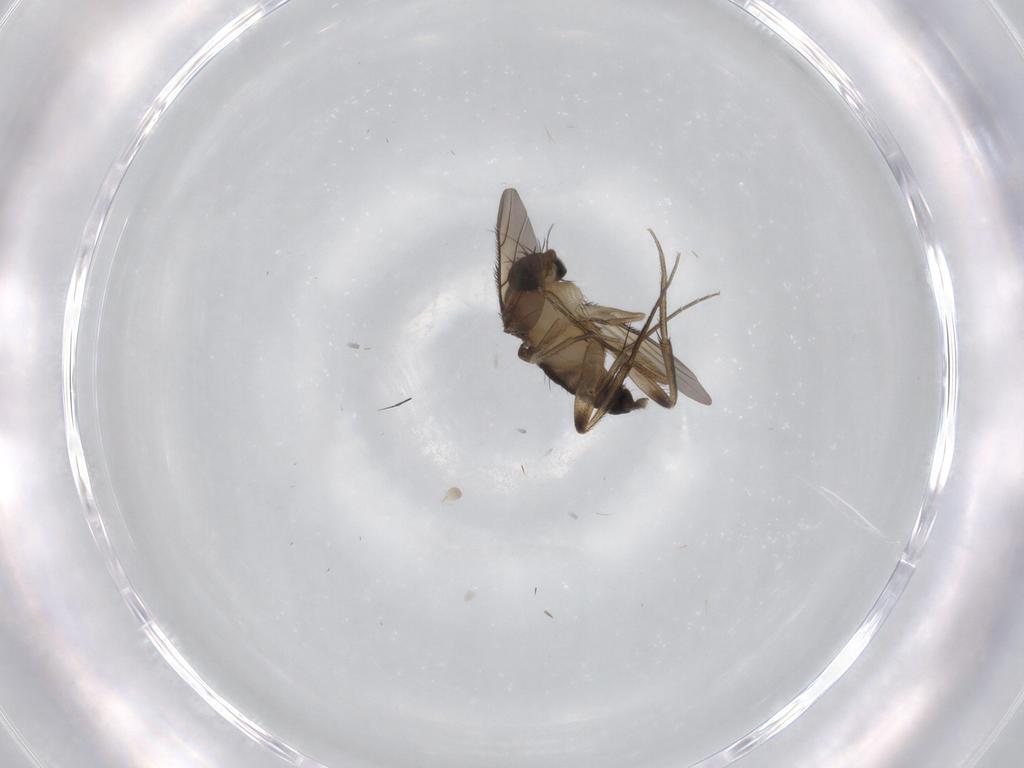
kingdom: Animalia
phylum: Arthropoda
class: Insecta
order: Diptera
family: Phoridae
